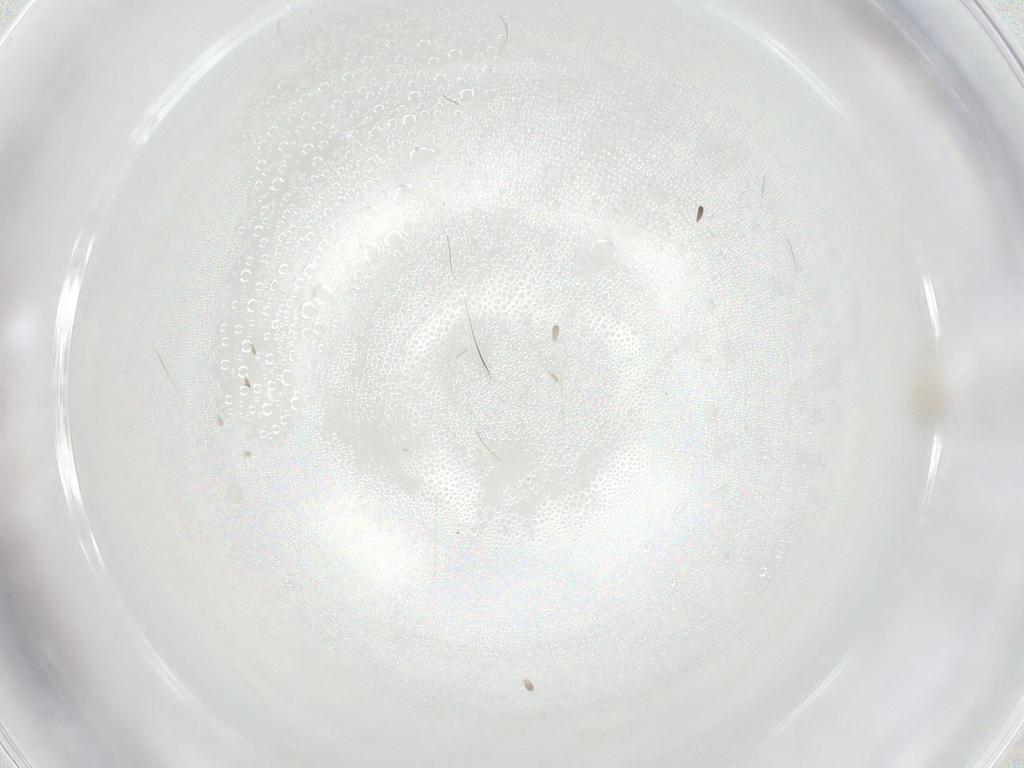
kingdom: Animalia
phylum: Arthropoda
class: Insecta
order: Diptera
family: Cecidomyiidae
